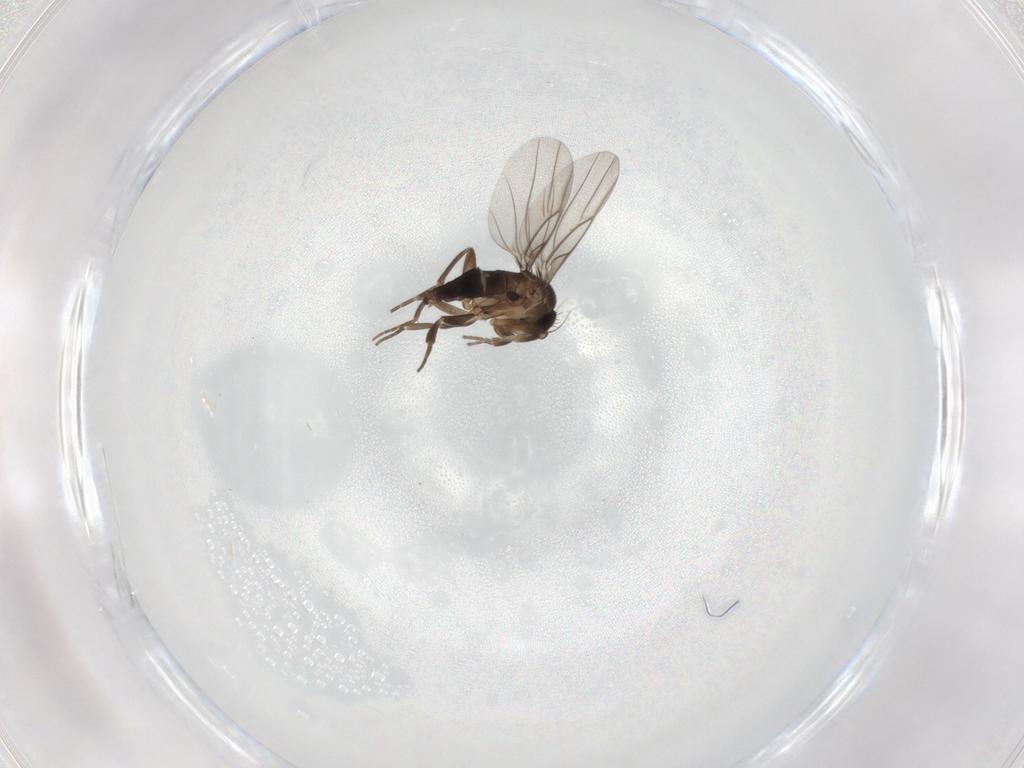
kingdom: Animalia
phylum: Arthropoda
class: Insecta
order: Diptera
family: Phoridae
